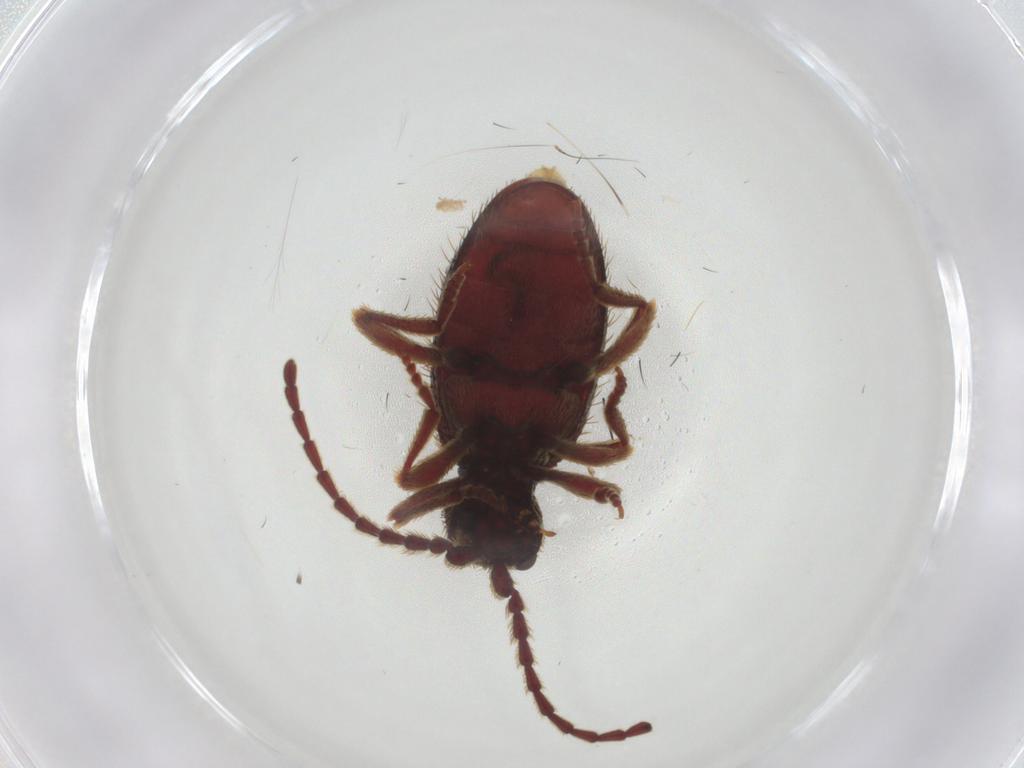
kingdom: Animalia
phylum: Arthropoda
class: Insecta
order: Coleoptera
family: Ptinidae
